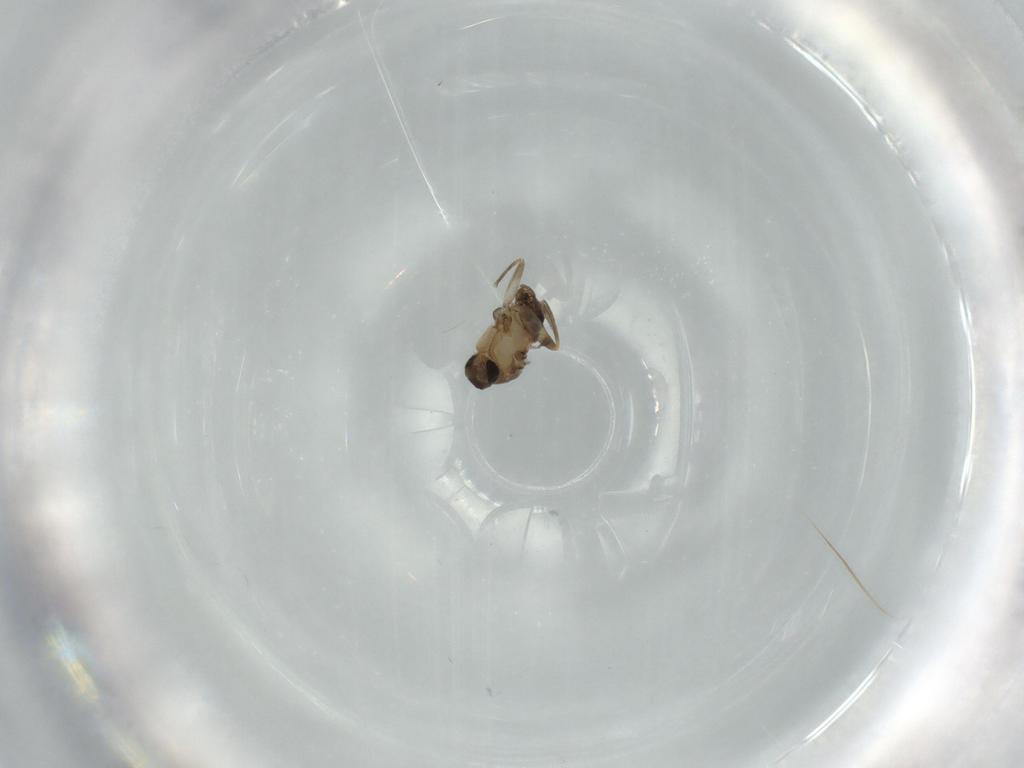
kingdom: Animalia
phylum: Arthropoda
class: Insecta
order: Diptera
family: Phoridae
